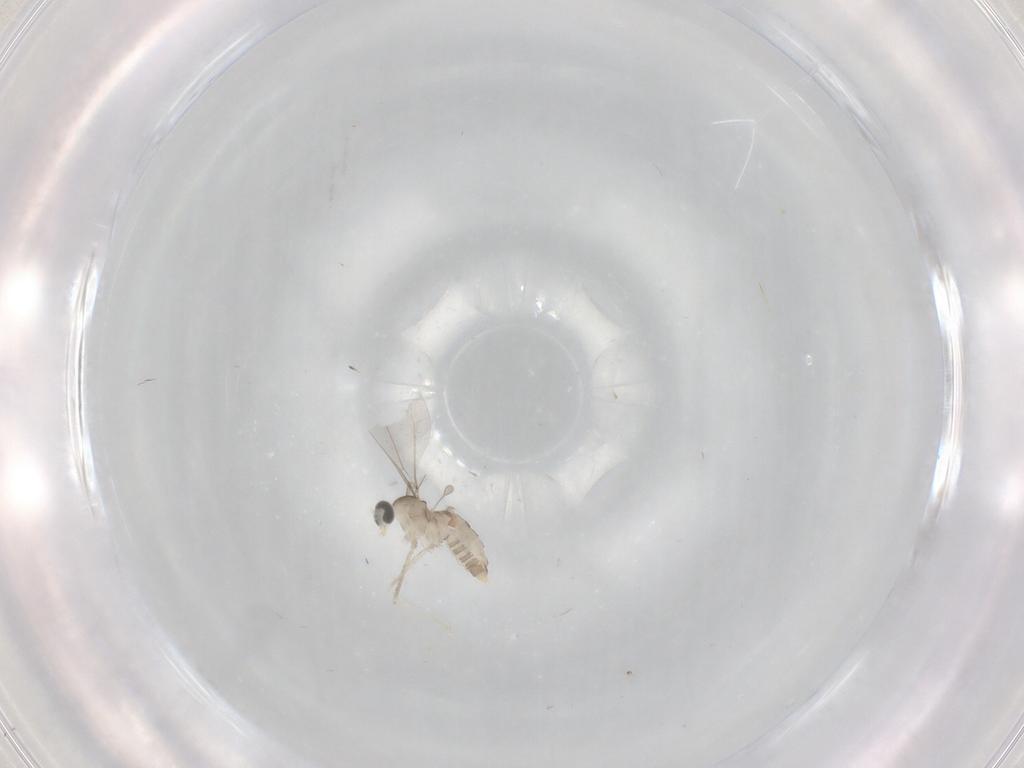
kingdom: Animalia
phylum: Arthropoda
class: Insecta
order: Diptera
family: Cecidomyiidae
